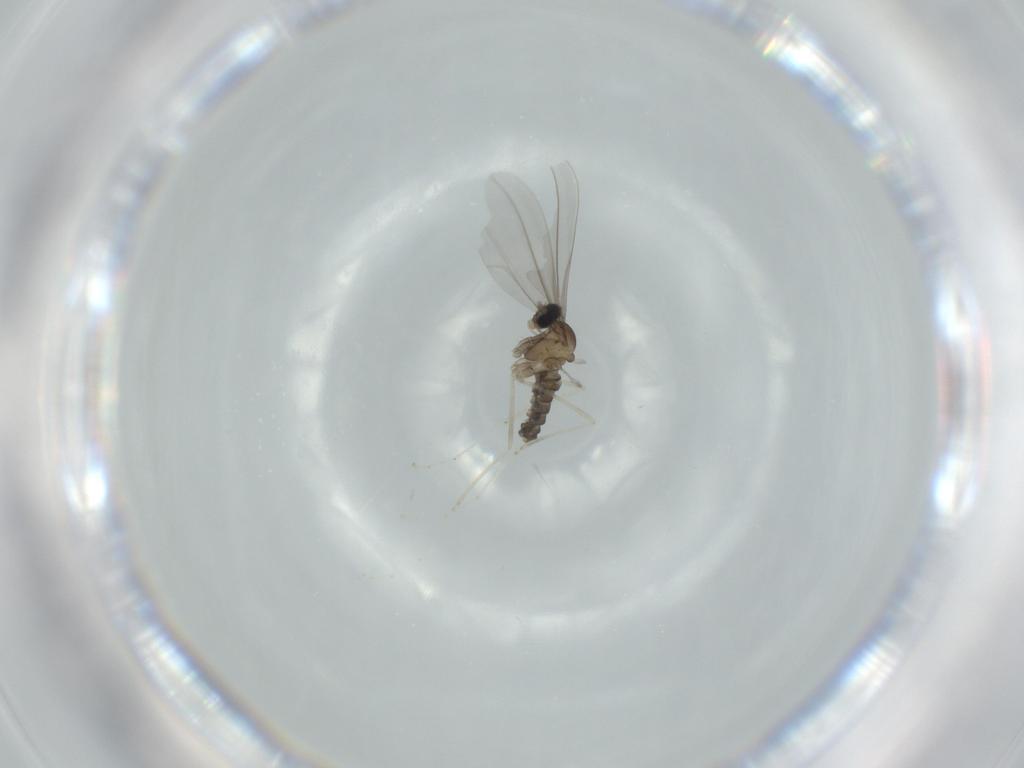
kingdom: Animalia
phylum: Arthropoda
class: Insecta
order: Diptera
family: Cecidomyiidae
